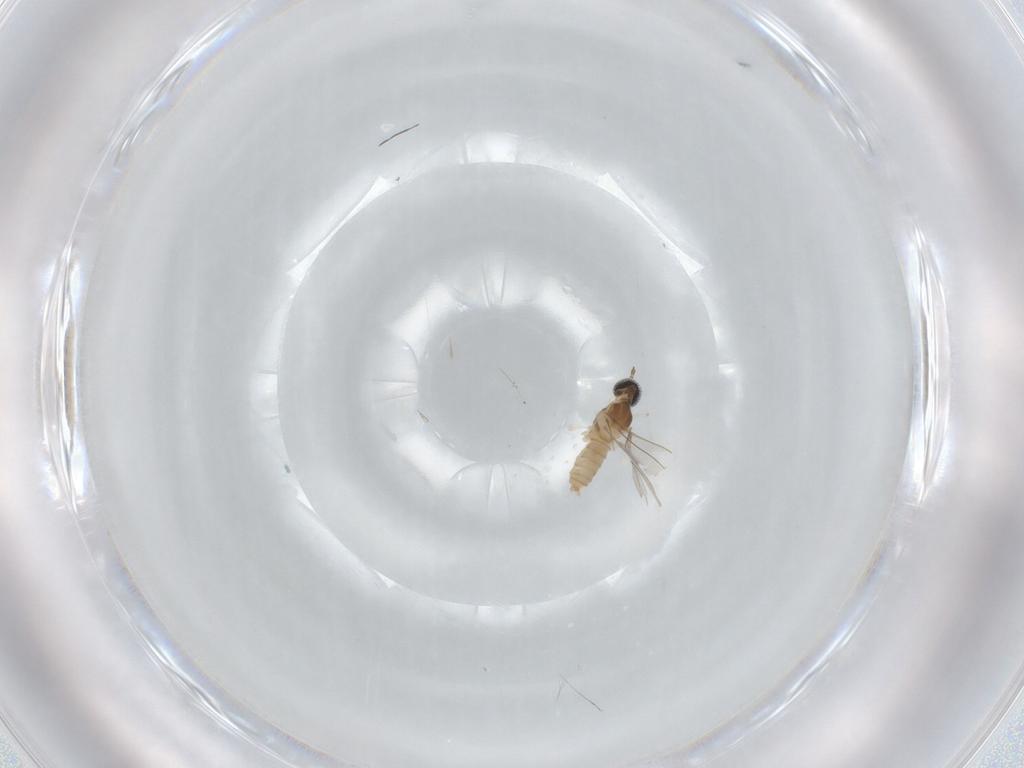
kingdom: Animalia
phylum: Arthropoda
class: Insecta
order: Diptera
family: Cecidomyiidae
